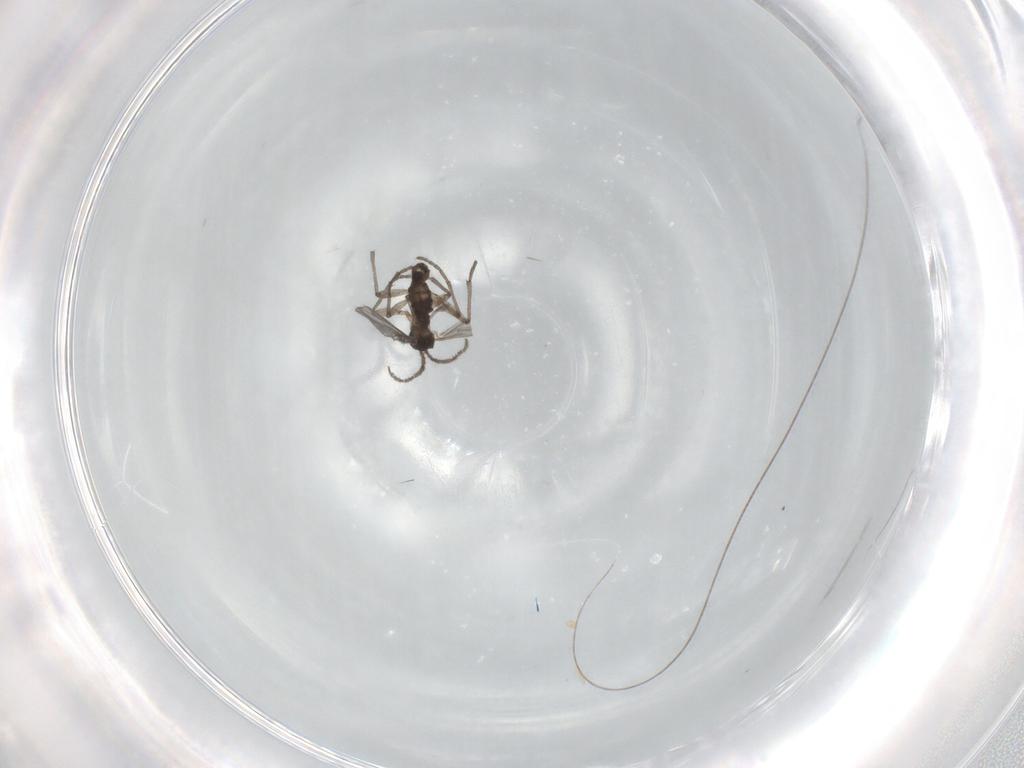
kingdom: Animalia
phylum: Arthropoda
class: Insecta
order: Diptera
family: Sciaridae
